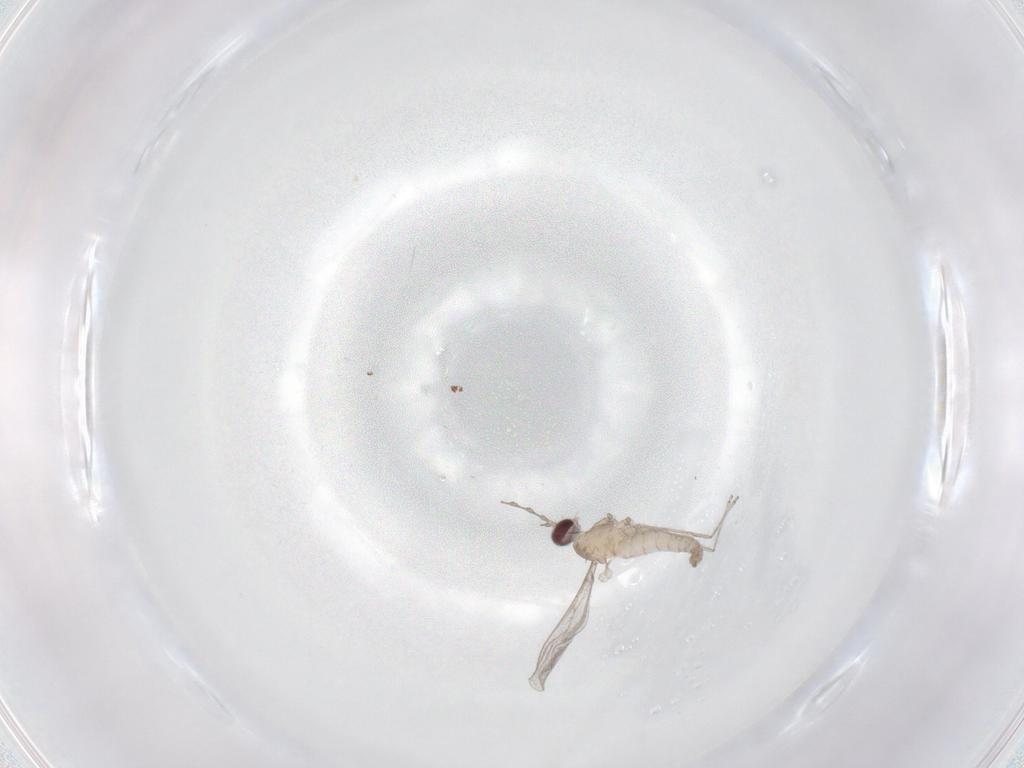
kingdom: Animalia
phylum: Arthropoda
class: Insecta
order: Diptera
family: Cecidomyiidae
